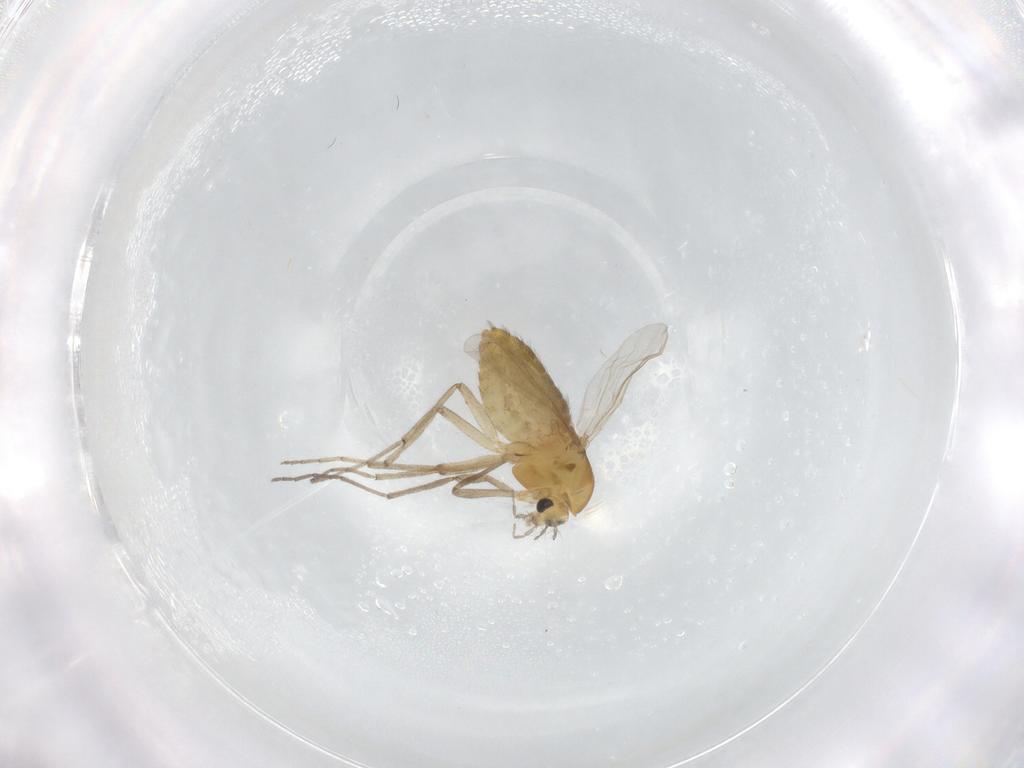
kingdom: Animalia
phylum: Arthropoda
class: Insecta
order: Diptera
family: Chironomidae
